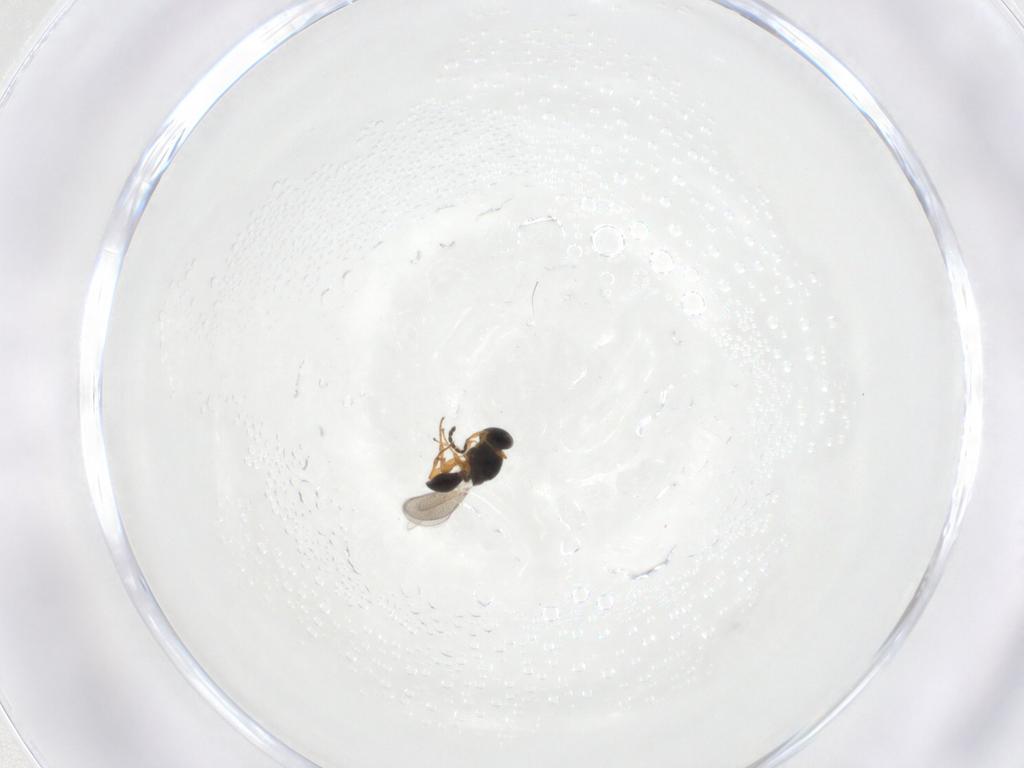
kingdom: Animalia
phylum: Arthropoda
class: Insecta
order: Hymenoptera
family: Platygastridae
